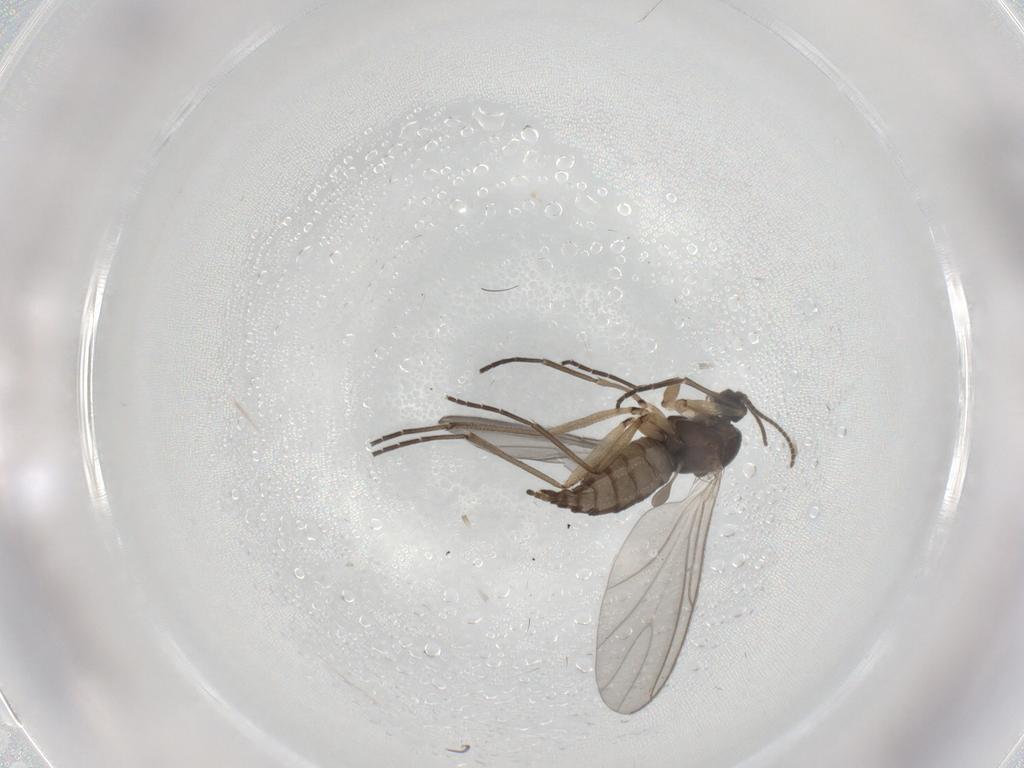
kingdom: Animalia
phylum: Arthropoda
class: Insecta
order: Diptera
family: Sciaridae
